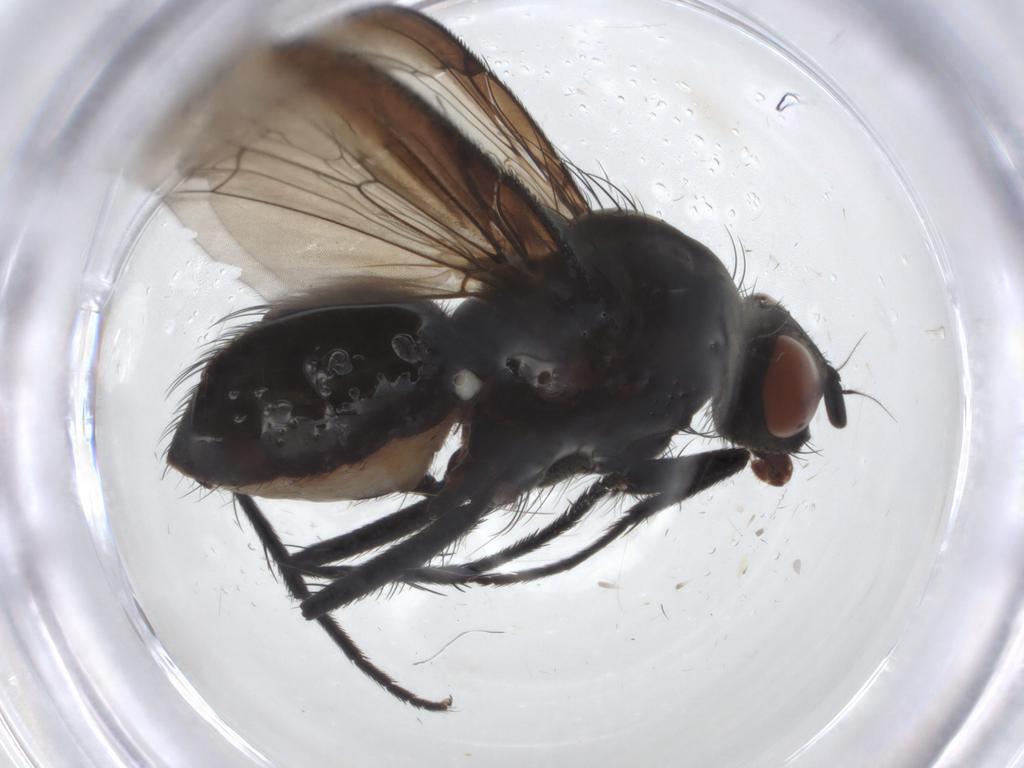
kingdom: Animalia
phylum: Arthropoda
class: Insecta
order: Diptera
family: Anthomyiidae
